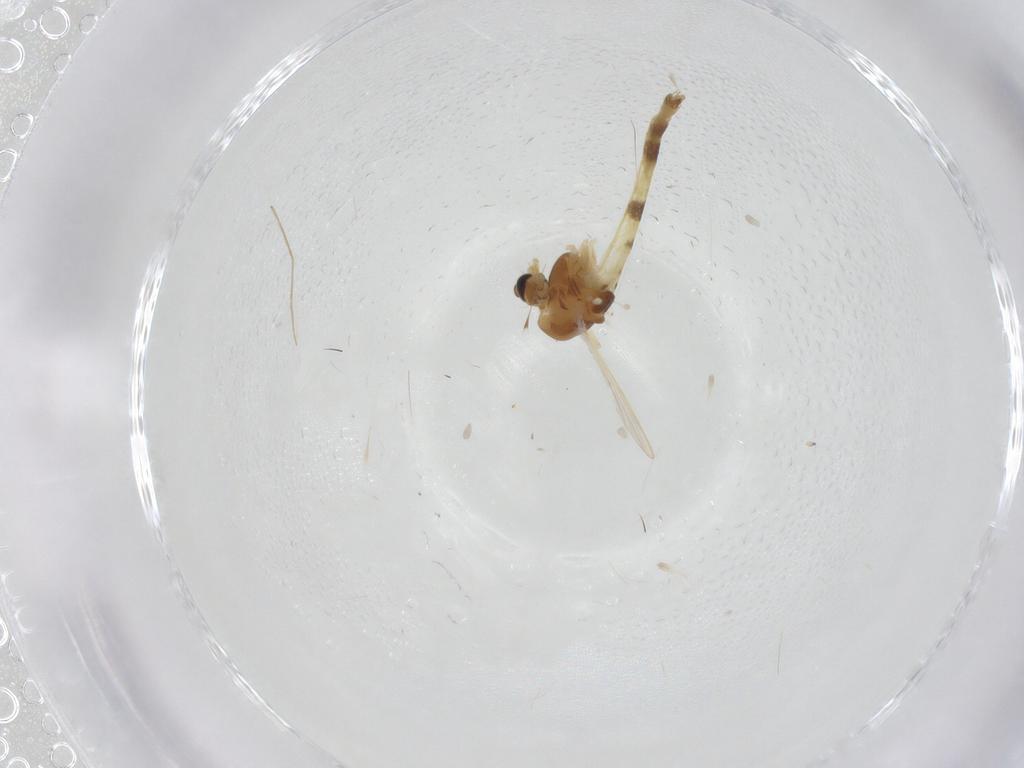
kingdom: Animalia
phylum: Arthropoda
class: Insecta
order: Diptera
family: Chironomidae
